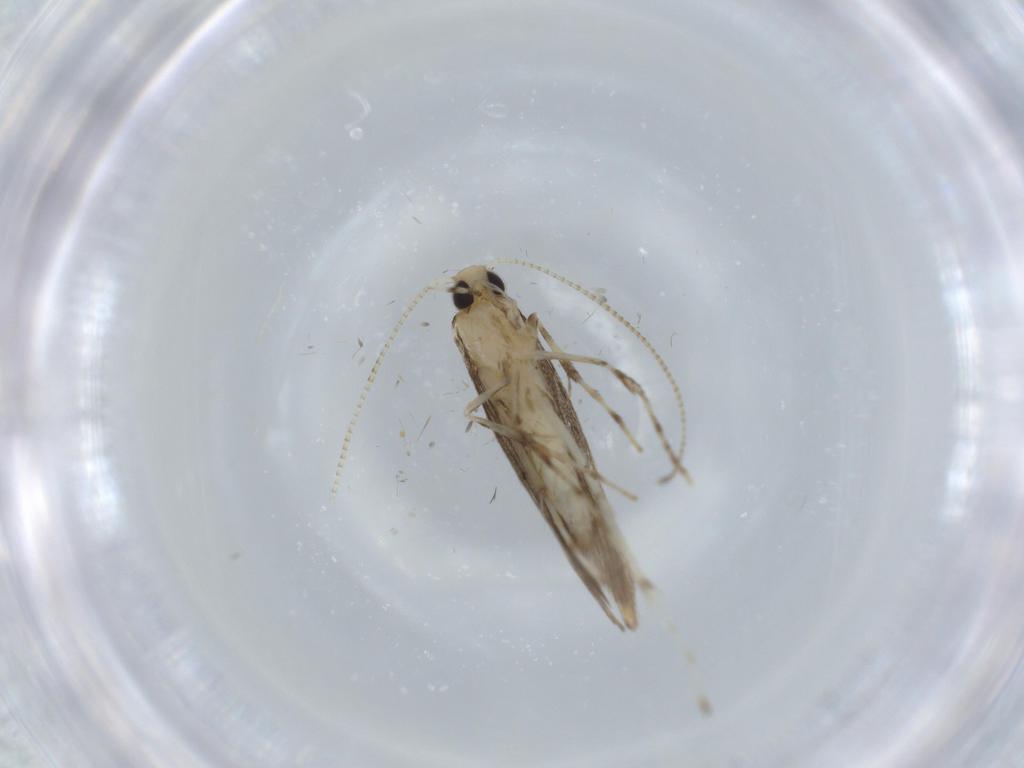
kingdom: Animalia
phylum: Arthropoda
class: Insecta
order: Lepidoptera
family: Gracillariidae
